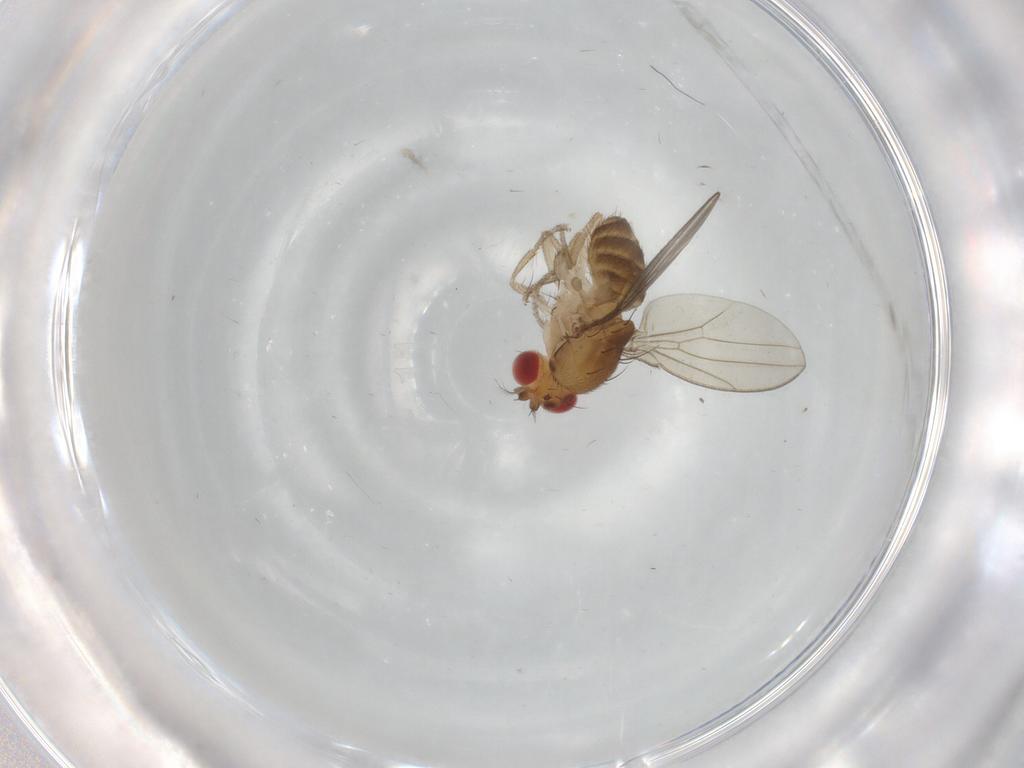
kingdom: Animalia
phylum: Arthropoda
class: Insecta
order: Diptera
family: Drosophilidae
